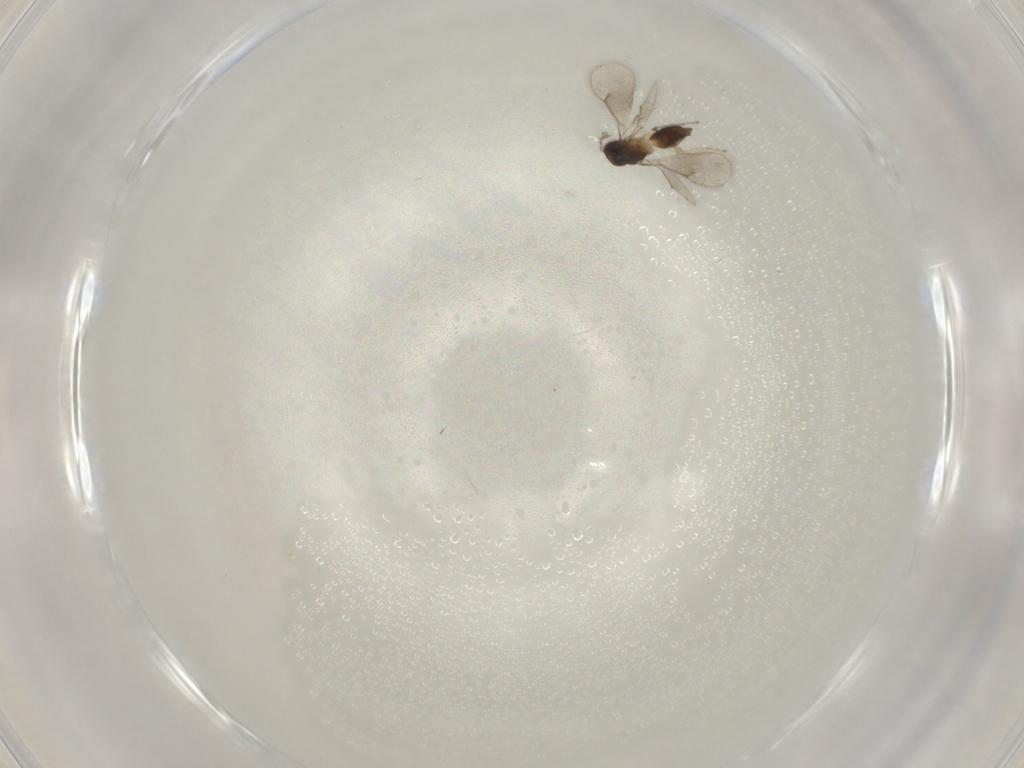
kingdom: Animalia
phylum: Arthropoda
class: Insecta
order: Hymenoptera
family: Eulophidae
